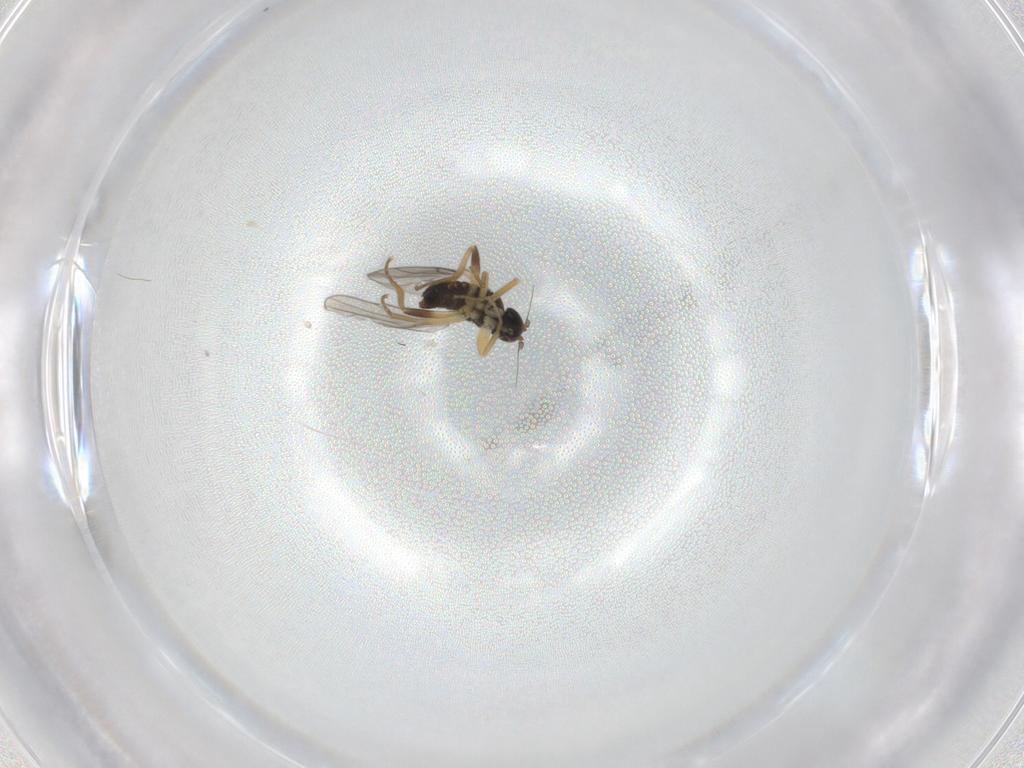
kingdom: Animalia
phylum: Arthropoda
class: Insecta
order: Diptera
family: Hybotidae
